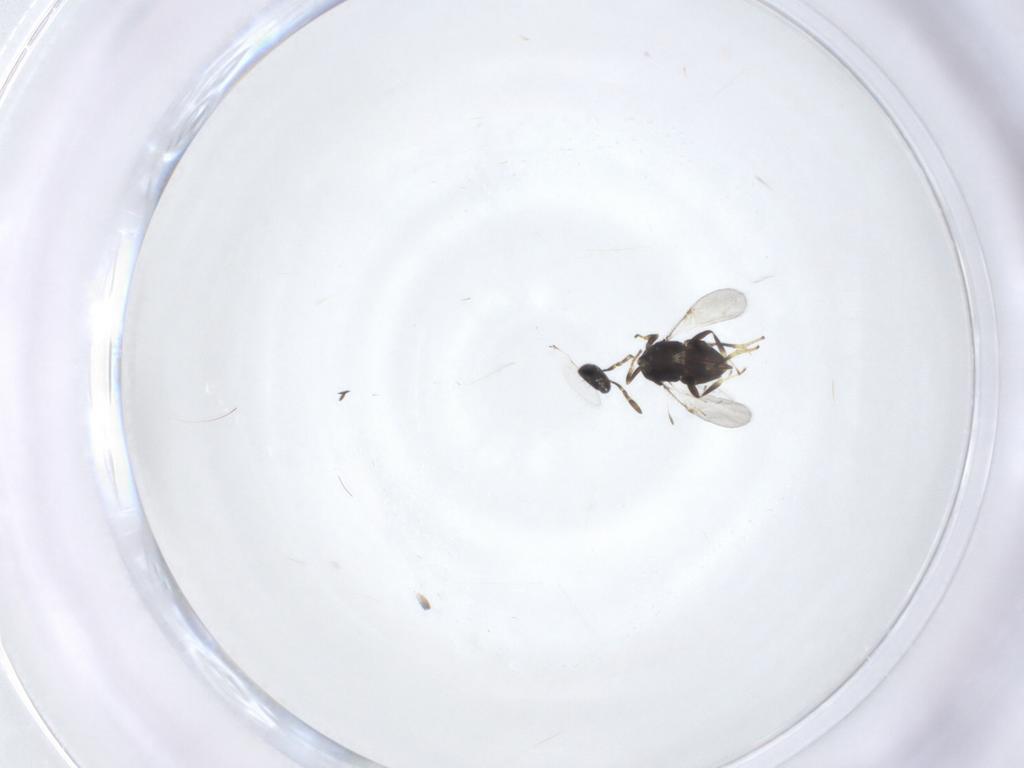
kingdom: Animalia
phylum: Arthropoda
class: Insecta
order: Hymenoptera
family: Encyrtidae
